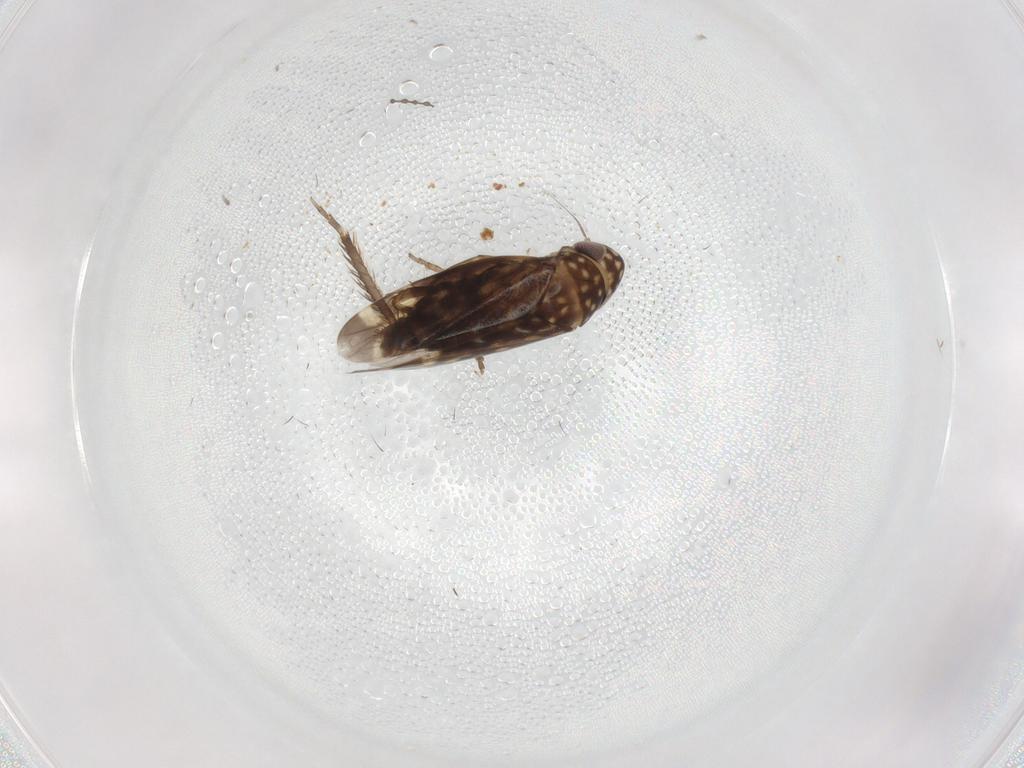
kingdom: Animalia
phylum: Arthropoda
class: Insecta
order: Hemiptera
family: Cicadellidae
